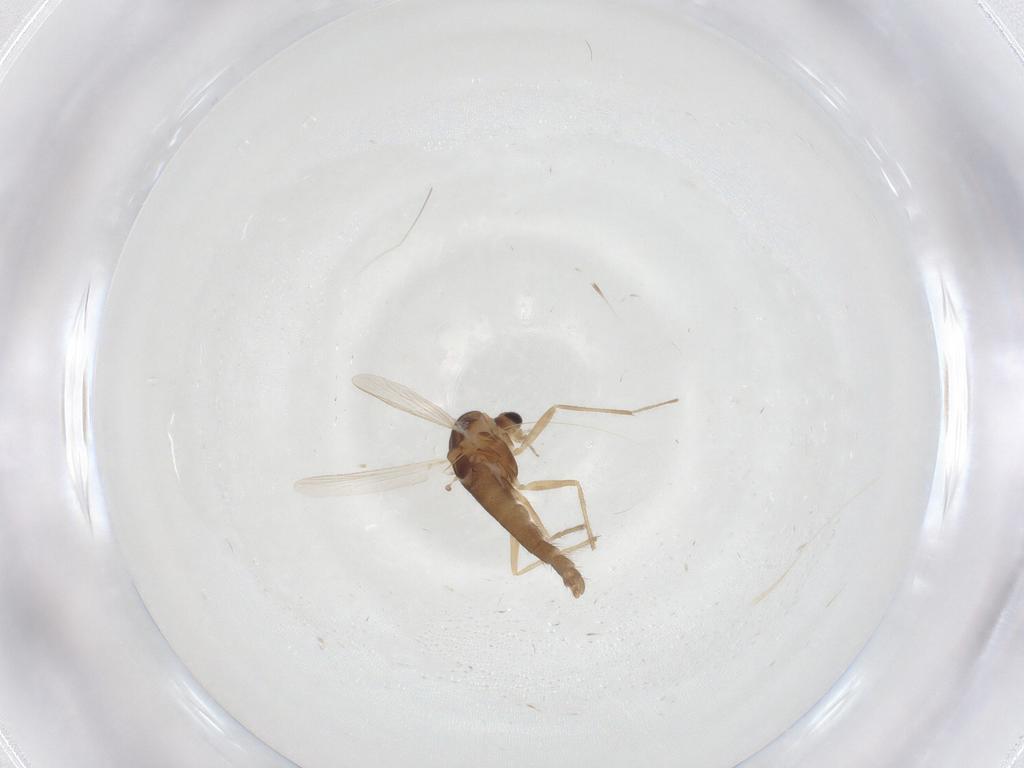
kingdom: Animalia
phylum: Arthropoda
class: Insecta
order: Diptera
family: Chironomidae
